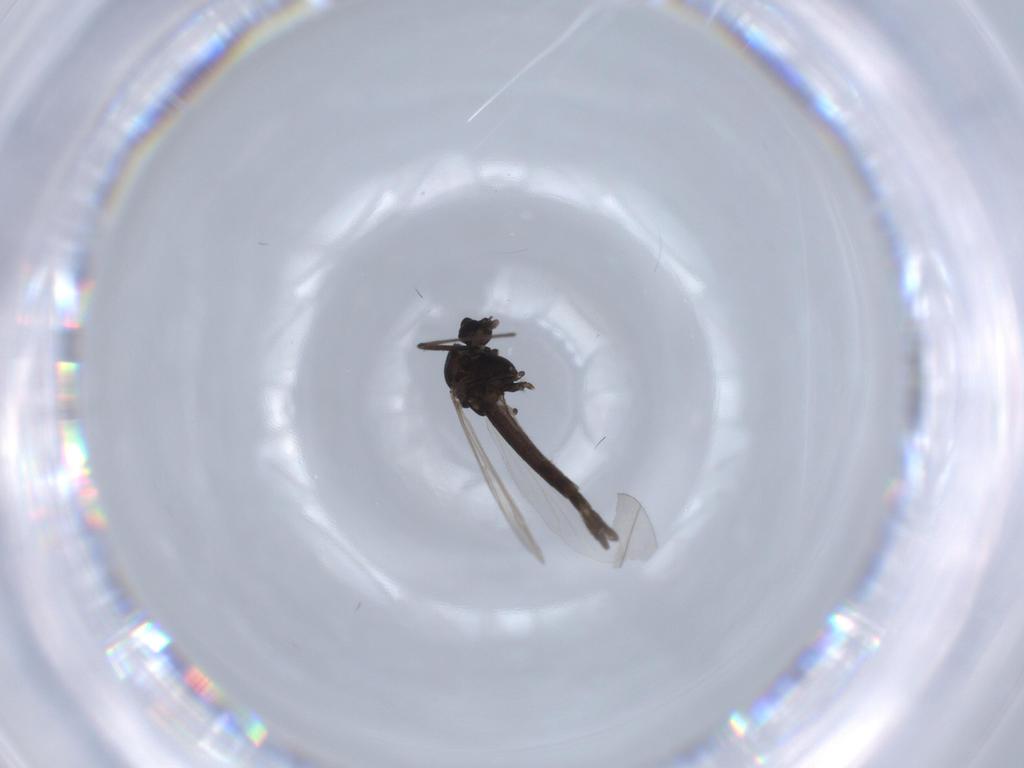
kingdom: Animalia
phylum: Arthropoda
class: Insecta
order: Diptera
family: Chironomidae
